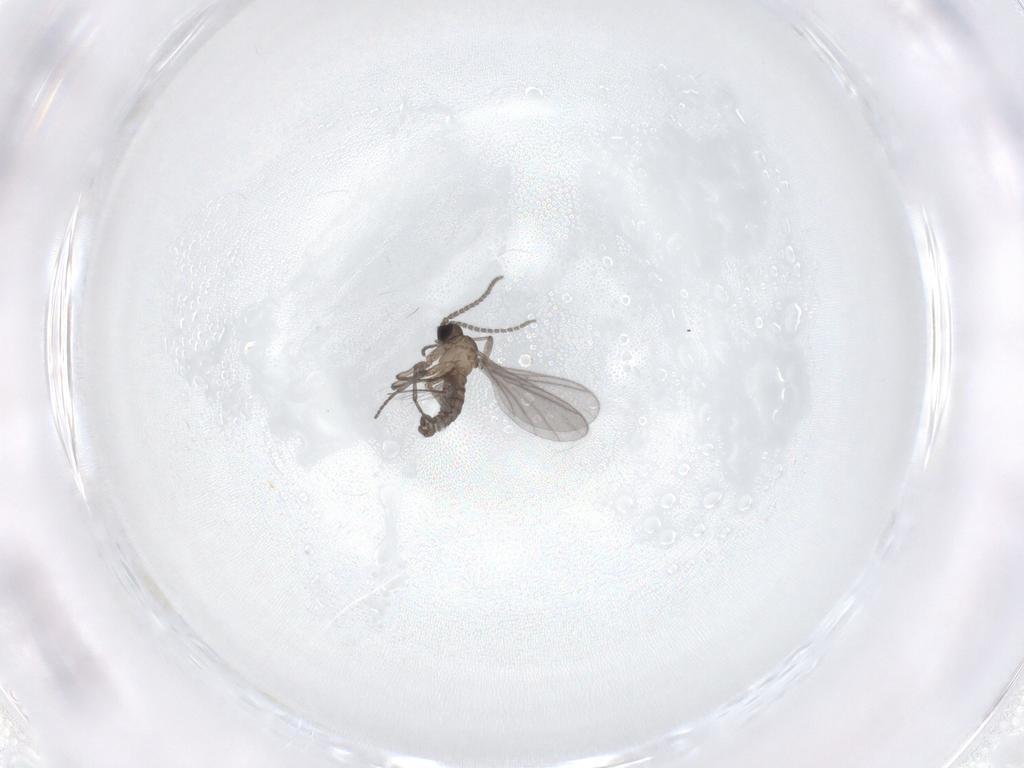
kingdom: Animalia
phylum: Arthropoda
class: Insecta
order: Diptera
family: Sciaridae
